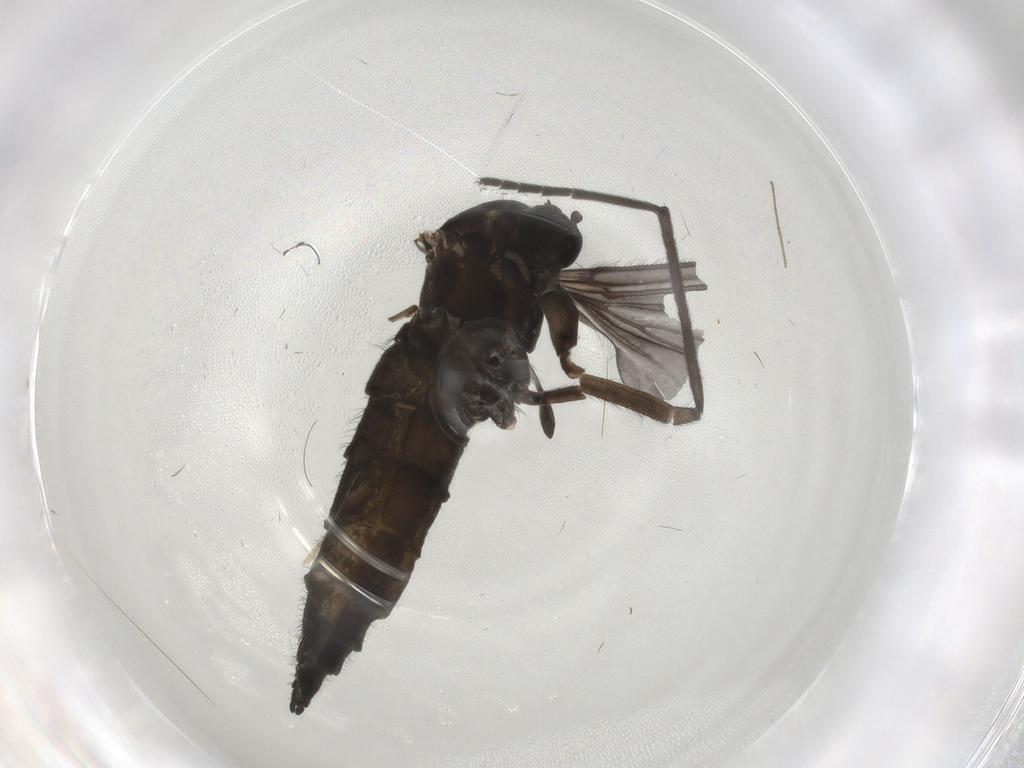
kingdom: Animalia
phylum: Arthropoda
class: Insecta
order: Diptera
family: Sciaridae
